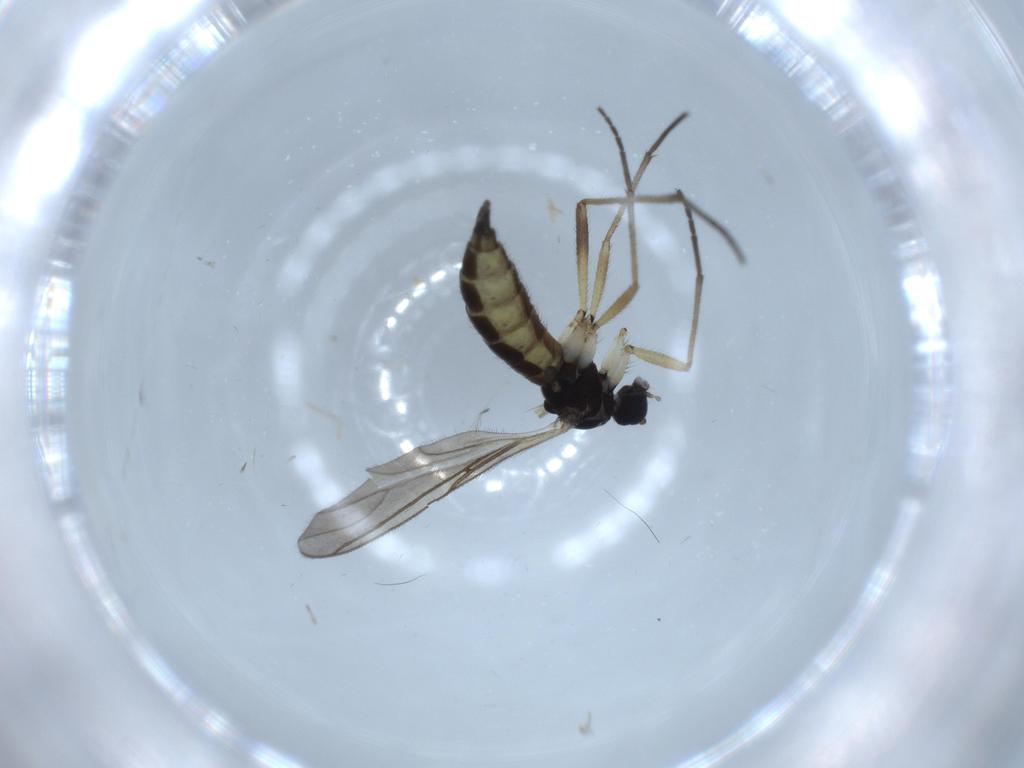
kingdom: Animalia
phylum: Arthropoda
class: Insecta
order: Diptera
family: Sciaridae
